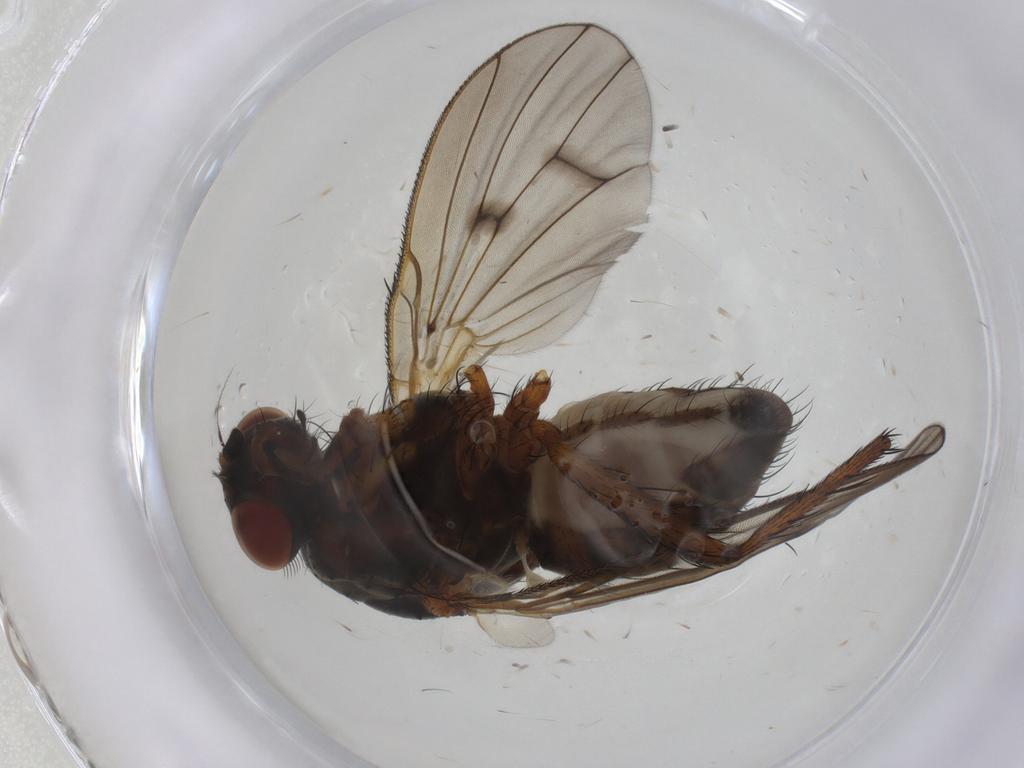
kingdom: Animalia
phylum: Arthropoda
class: Insecta
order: Diptera
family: Anthomyiidae
